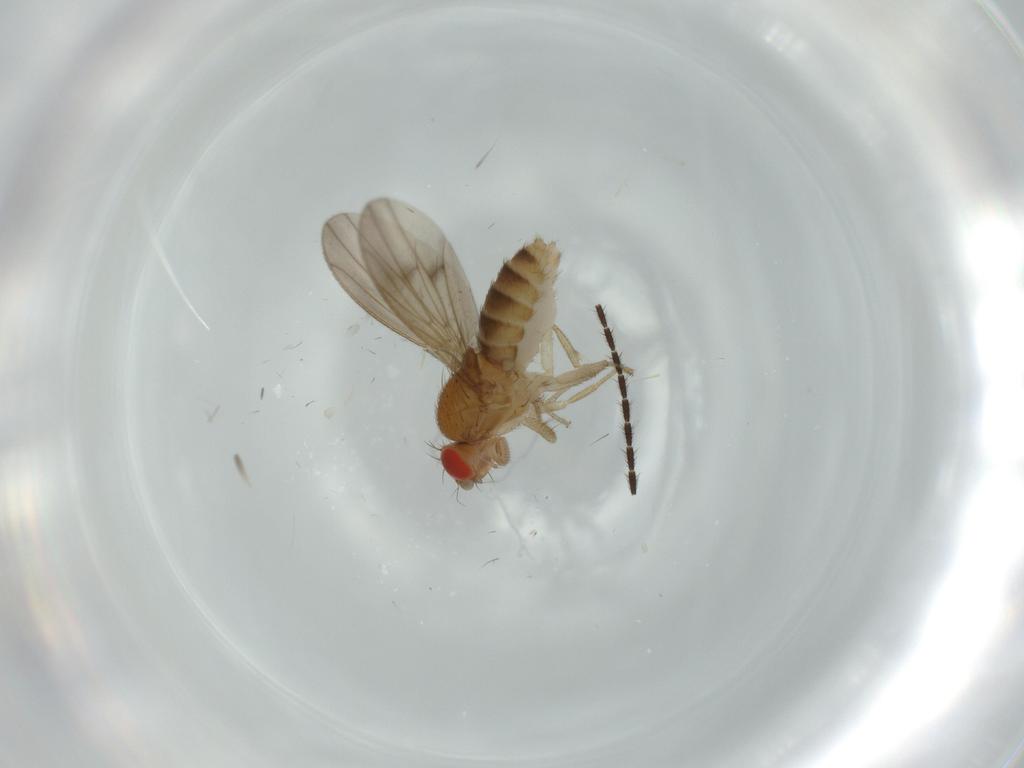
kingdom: Animalia
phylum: Arthropoda
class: Insecta
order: Diptera
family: Drosophilidae
